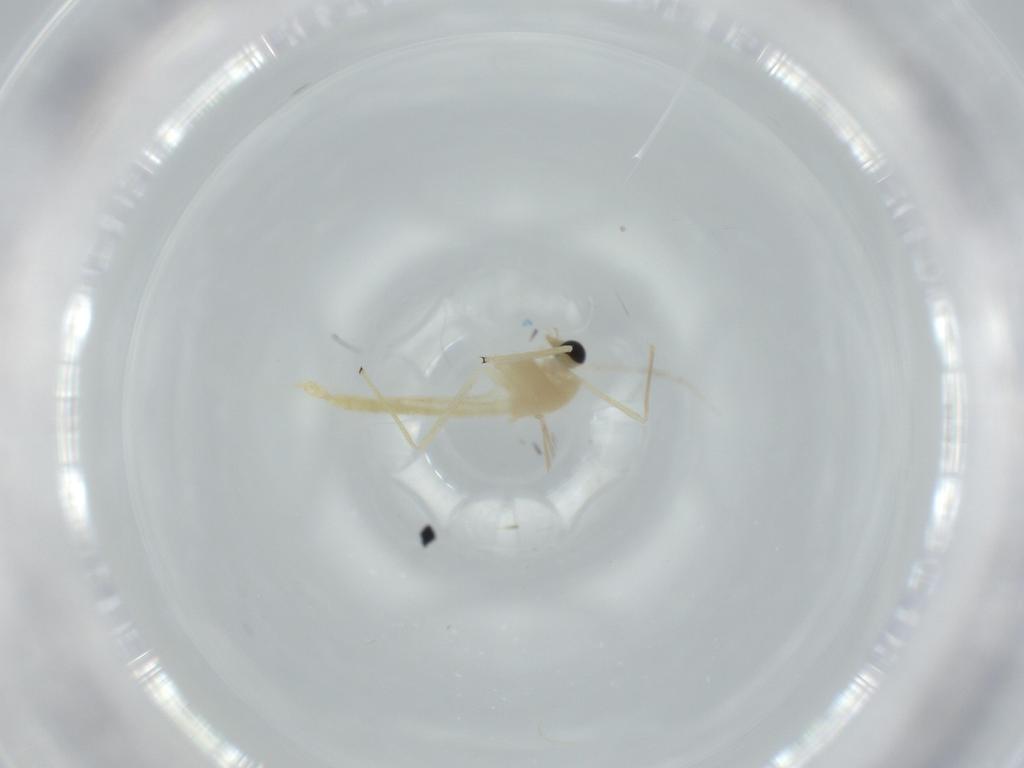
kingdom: Animalia
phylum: Arthropoda
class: Insecta
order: Diptera
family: Chironomidae
